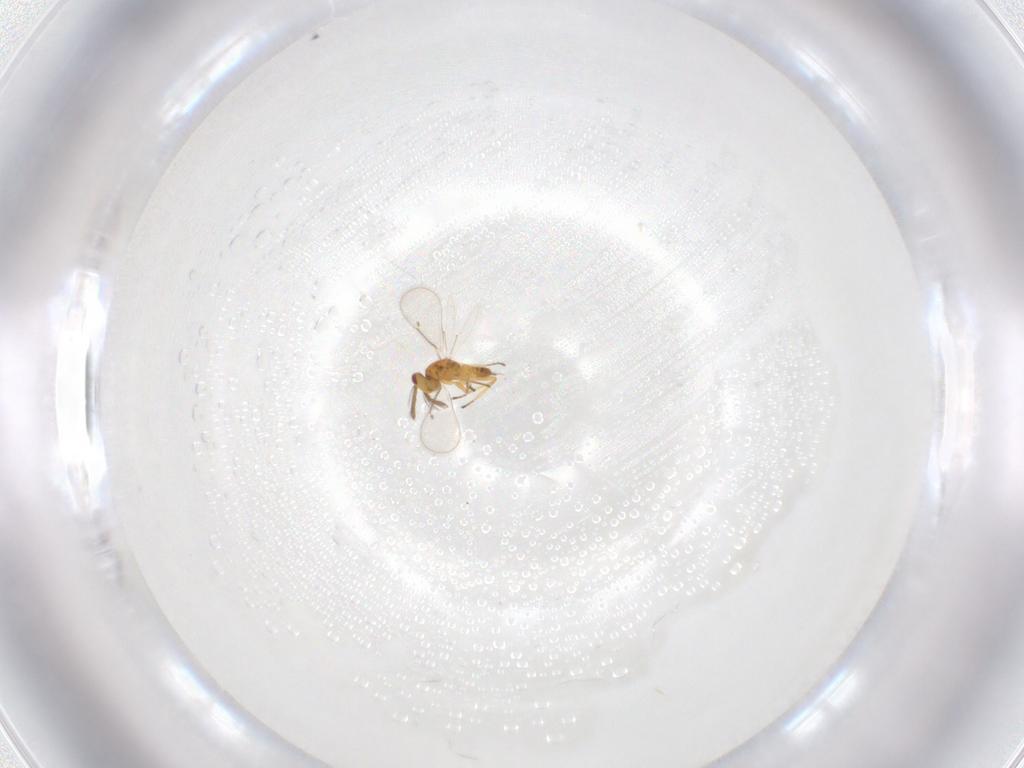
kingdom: Animalia
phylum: Arthropoda
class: Insecta
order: Hymenoptera
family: Eulophidae
